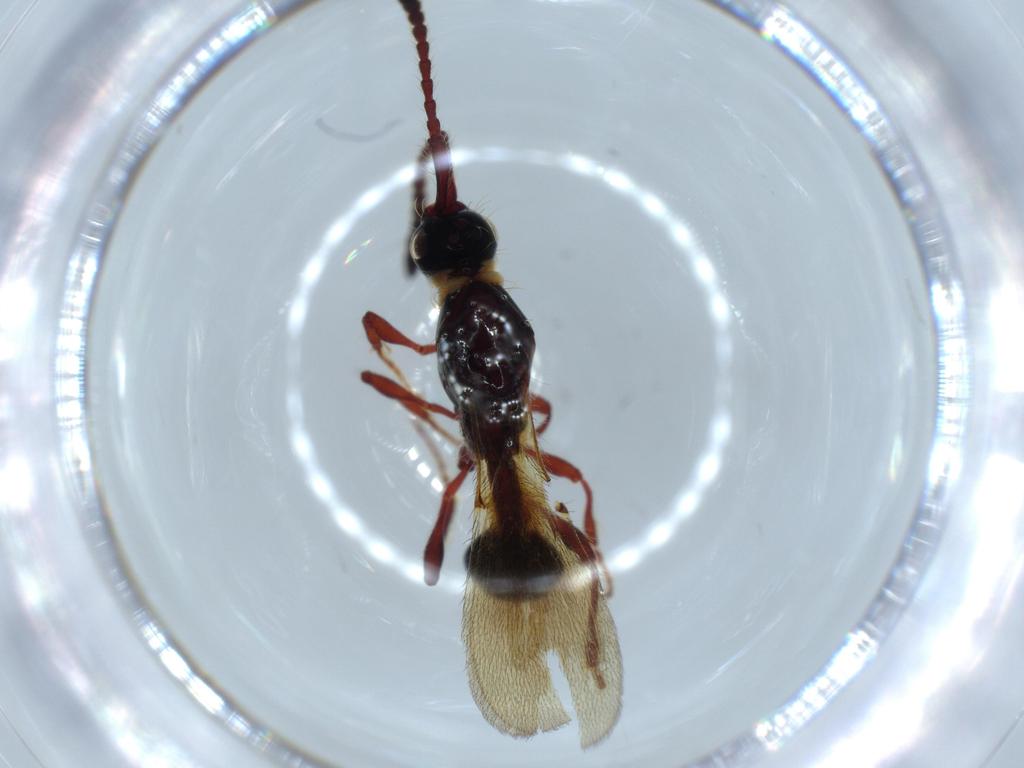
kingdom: Animalia
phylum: Arthropoda
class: Insecta
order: Hymenoptera
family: Diapriidae
